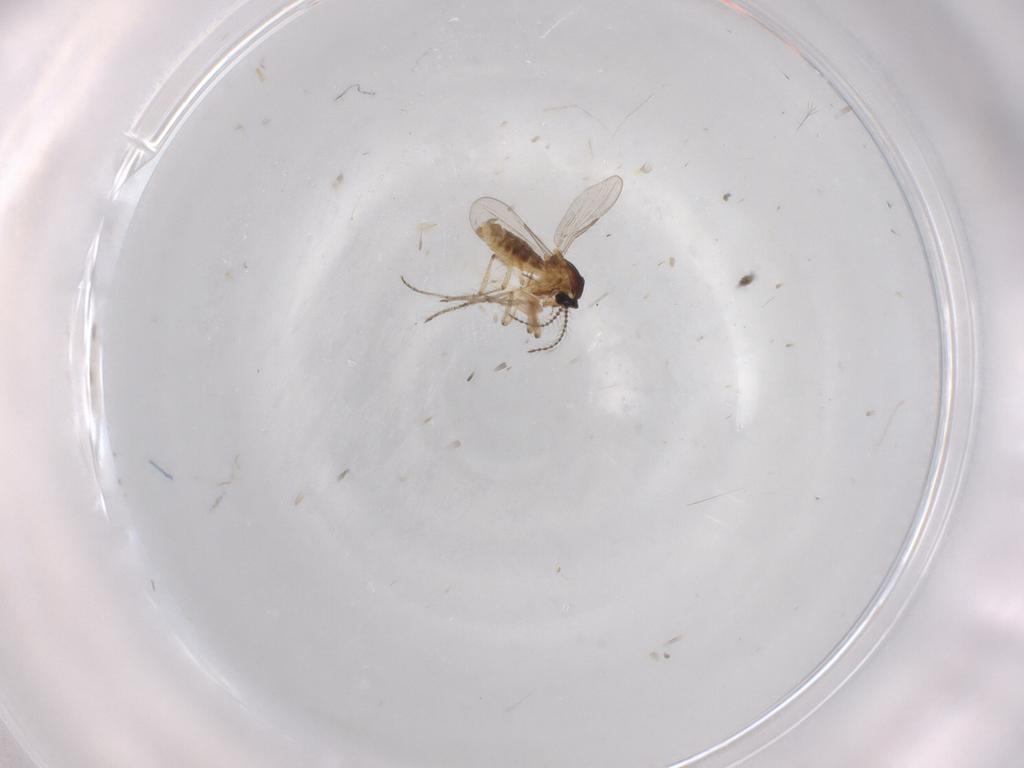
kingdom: Animalia
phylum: Arthropoda
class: Insecta
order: Diptera
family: Ceratopogonidae
